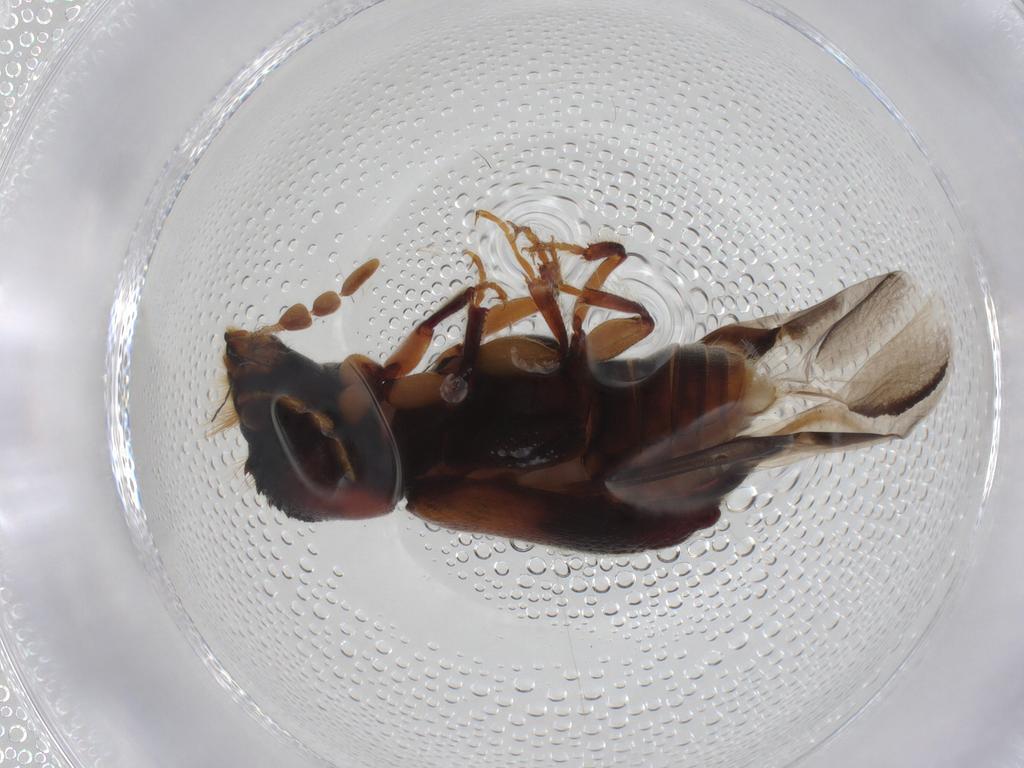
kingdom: Animalia
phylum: Arthropoda
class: Insecta
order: Coleoptera
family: Bostrichidae
